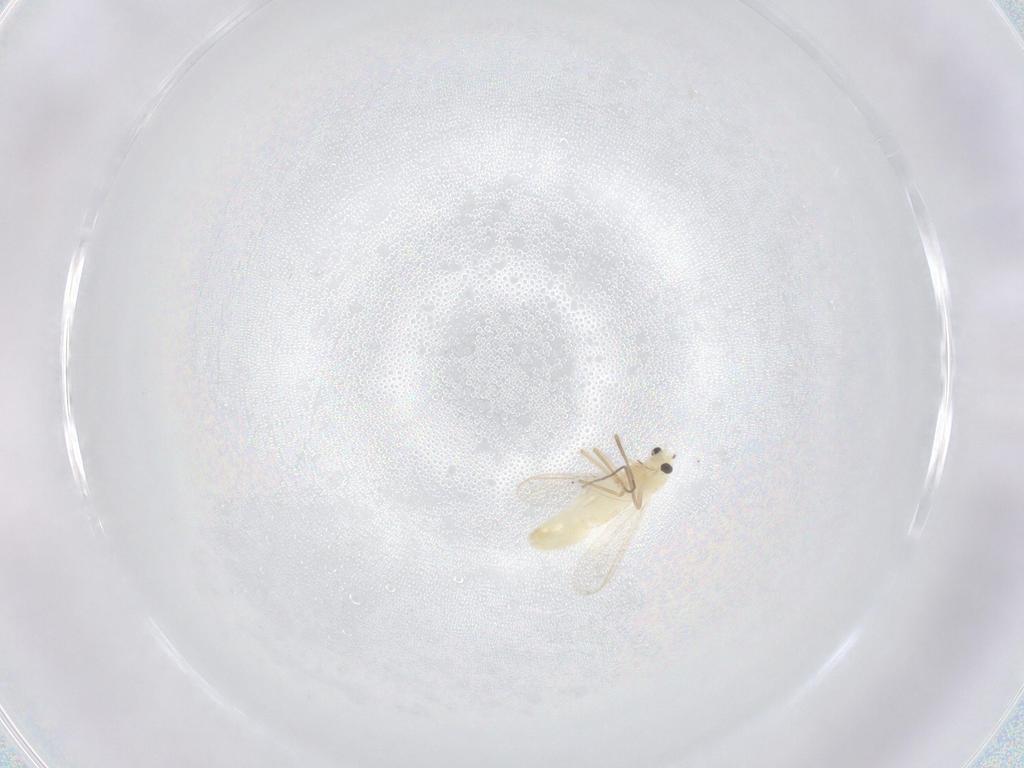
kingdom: Animalia
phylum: Arthropoda
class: Insecta
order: Diptera
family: Chironomidae
